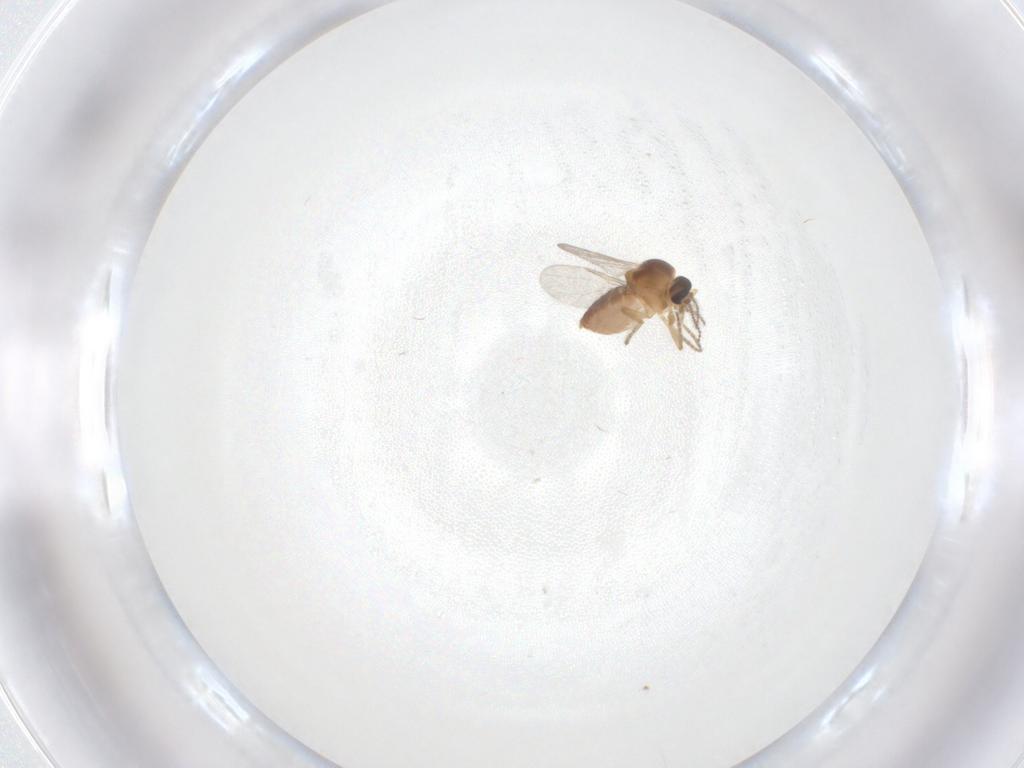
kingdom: Animalia
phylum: Arthropoda
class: Insecta
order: Diptera
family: Ceratopogonidae
